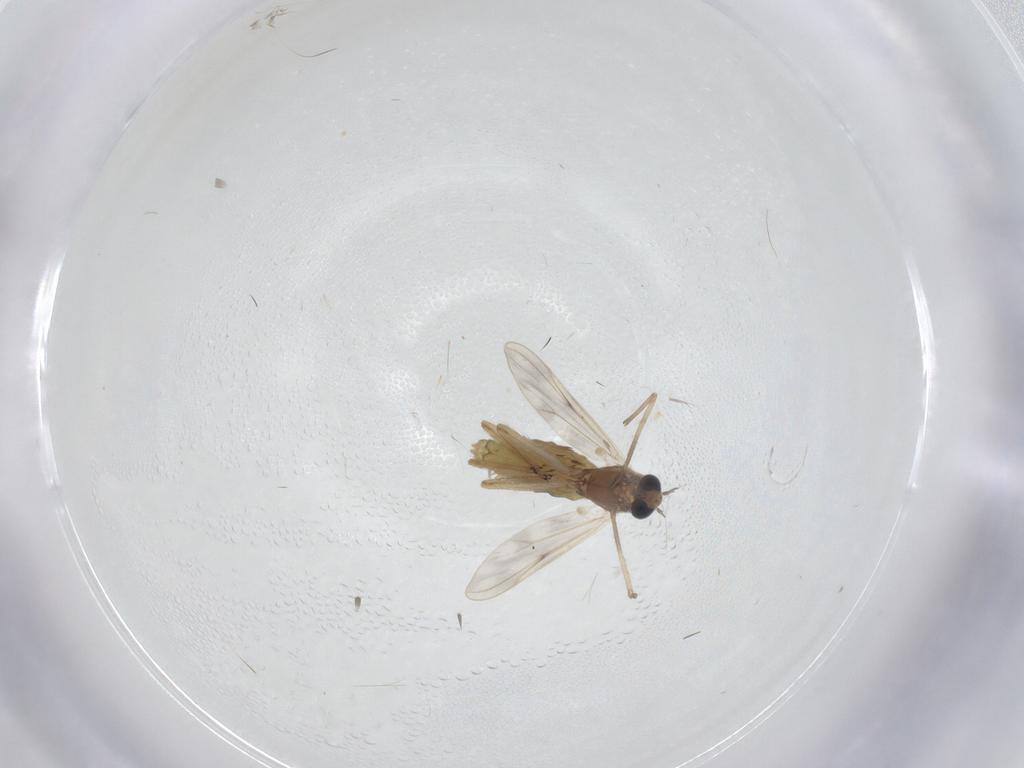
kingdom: Animalia
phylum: Arthropoda
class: Insecta
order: Diptera
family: Chironomidae
